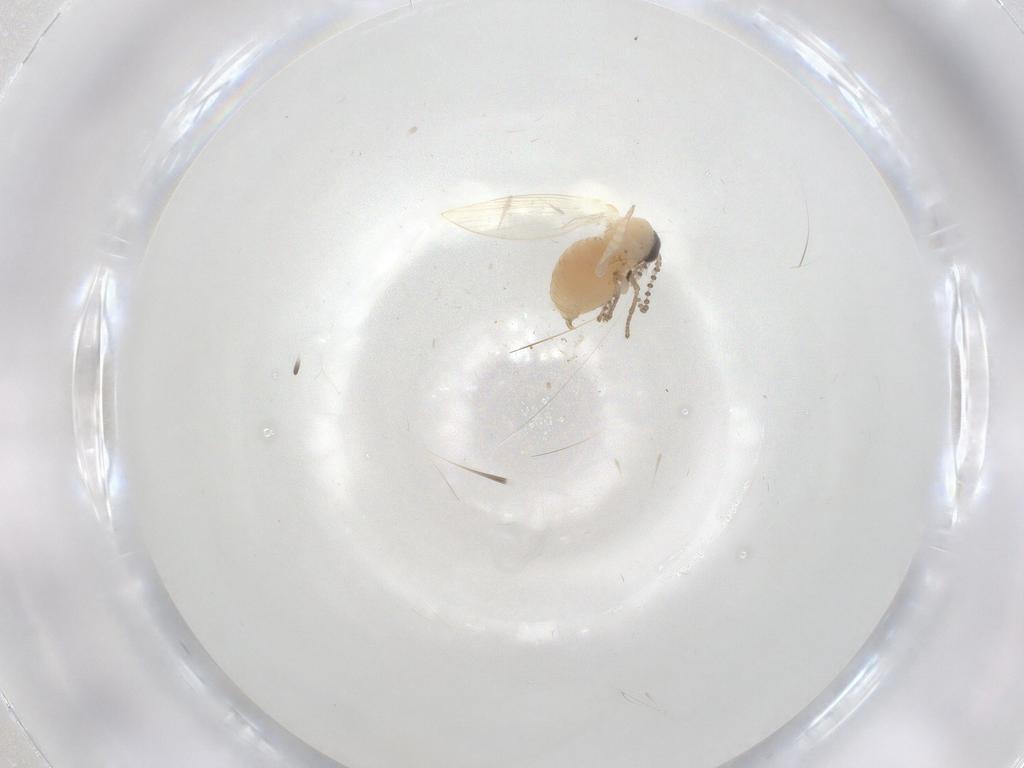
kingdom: Animalia
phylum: Arthropoda
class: Insecta
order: Diptera
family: Psychodidae
